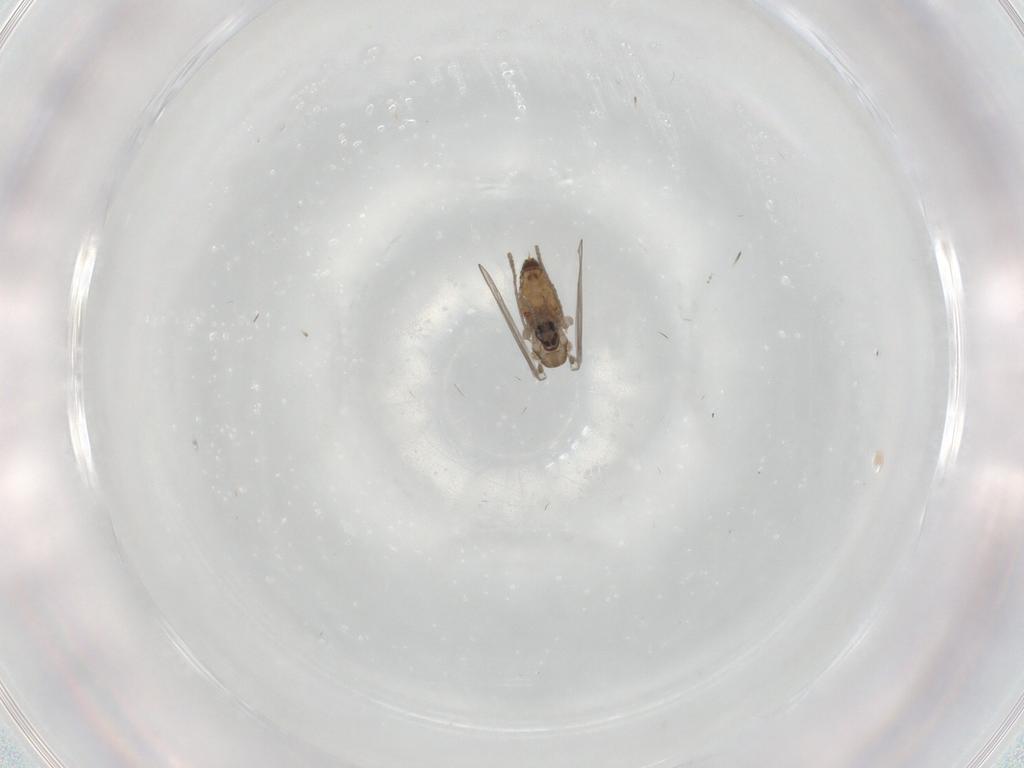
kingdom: Animalia
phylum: Arthropoda
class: Insecta
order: Diptera
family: Psychodidae
